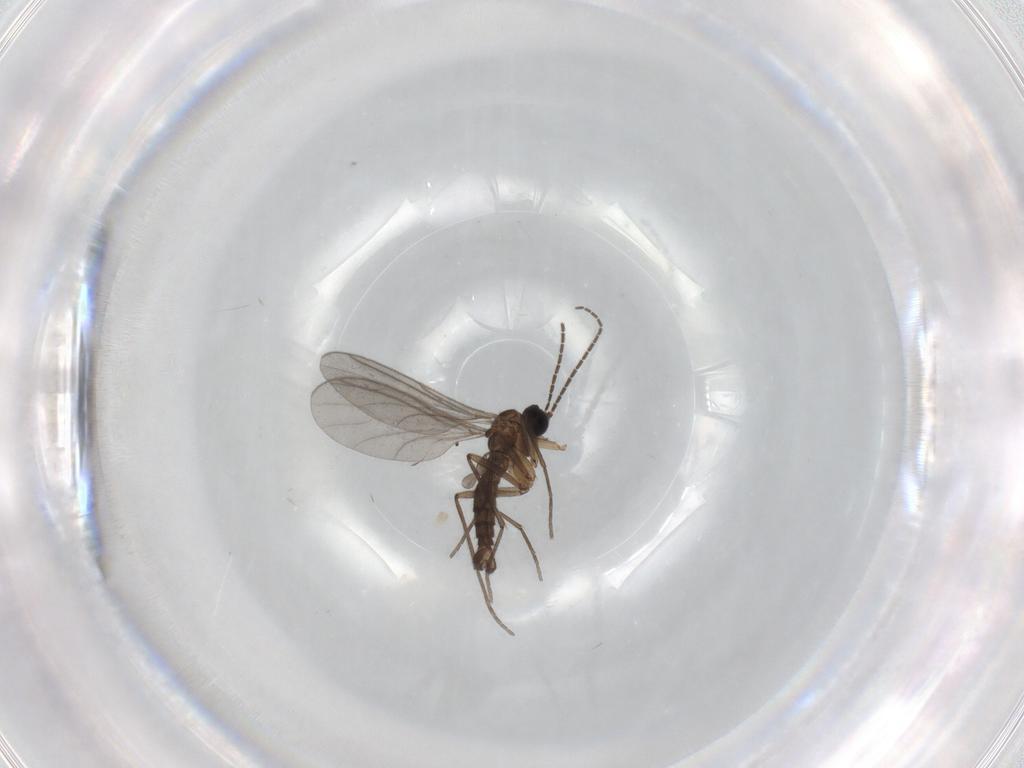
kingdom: Animalia
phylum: Arthropoda
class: Insecta
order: Diptera
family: Sciaridae
